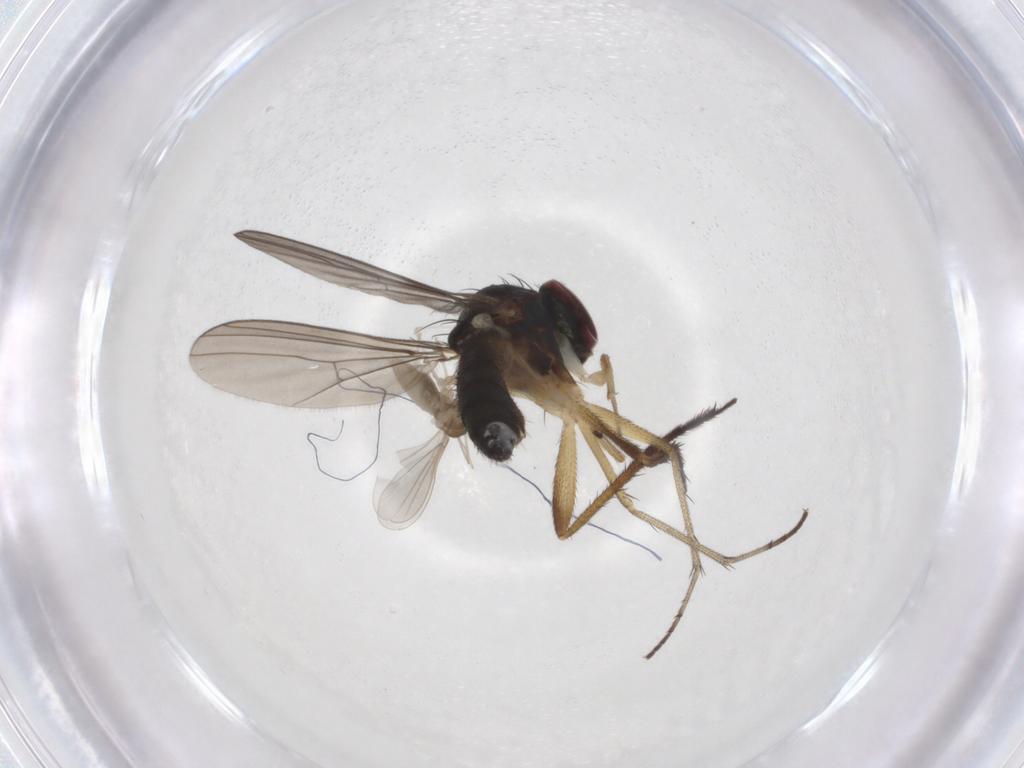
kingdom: Animalia
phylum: Arthropoda
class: Insecta
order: Diptera
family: Dolichopodidae
